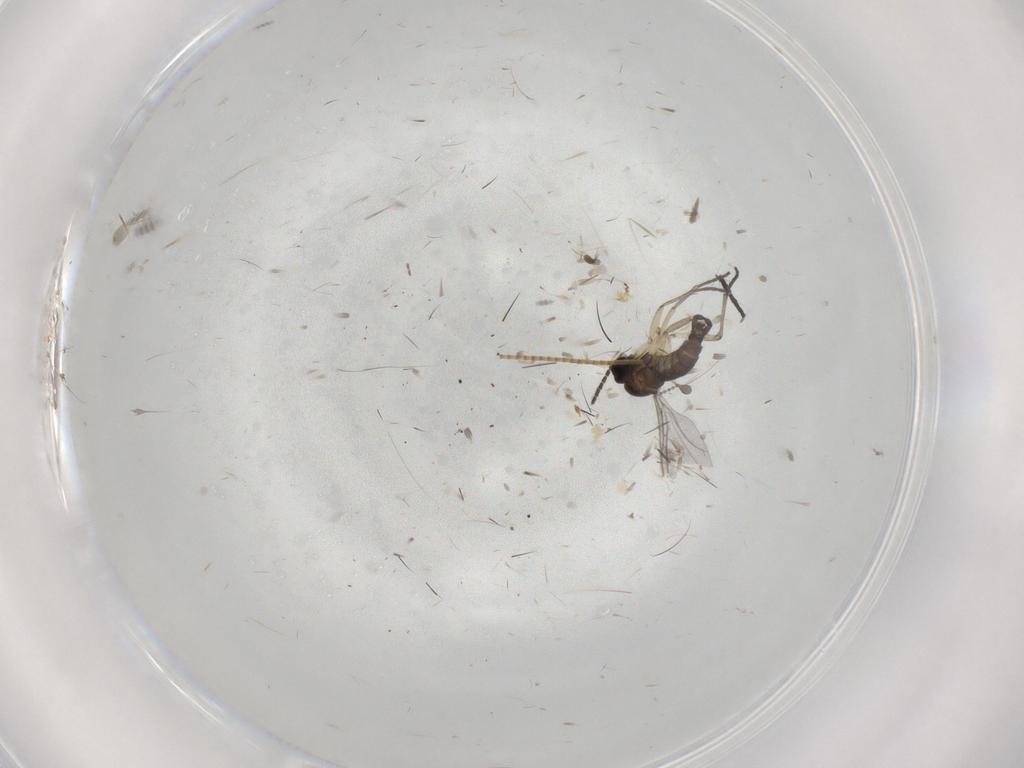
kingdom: Animalia
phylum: Arthropoda
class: Insecta
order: Diptera
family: Sciaridae
